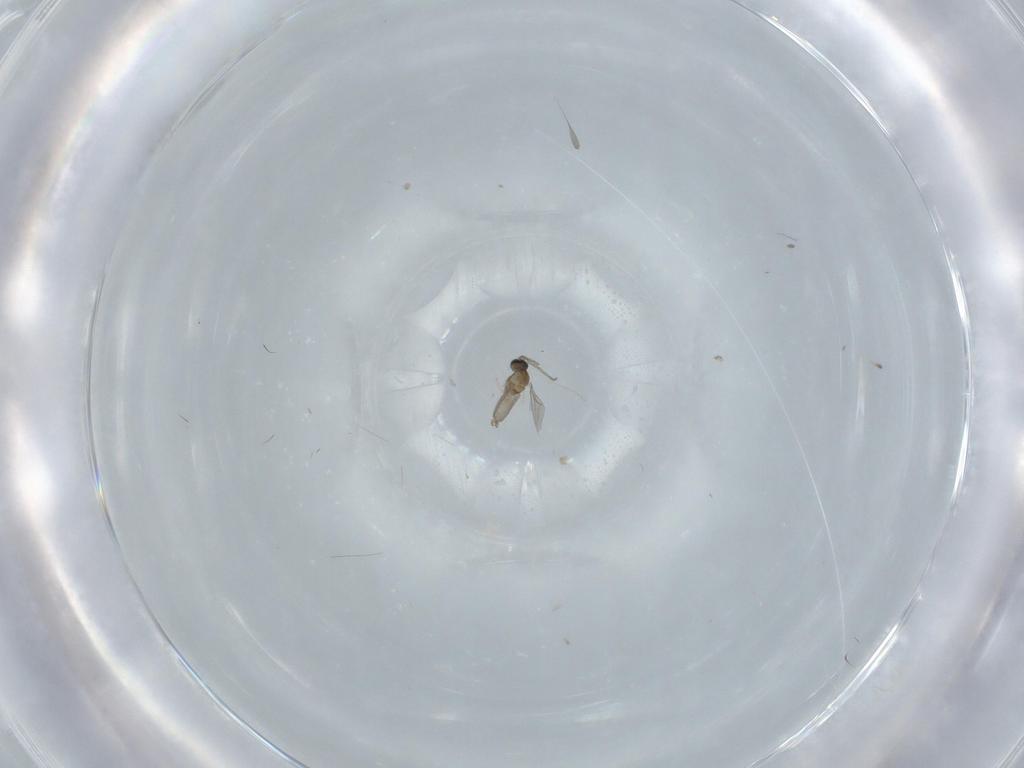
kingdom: Animalia
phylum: Arthropoda
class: Insecta
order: Diptera
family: Cecidomyiidae
